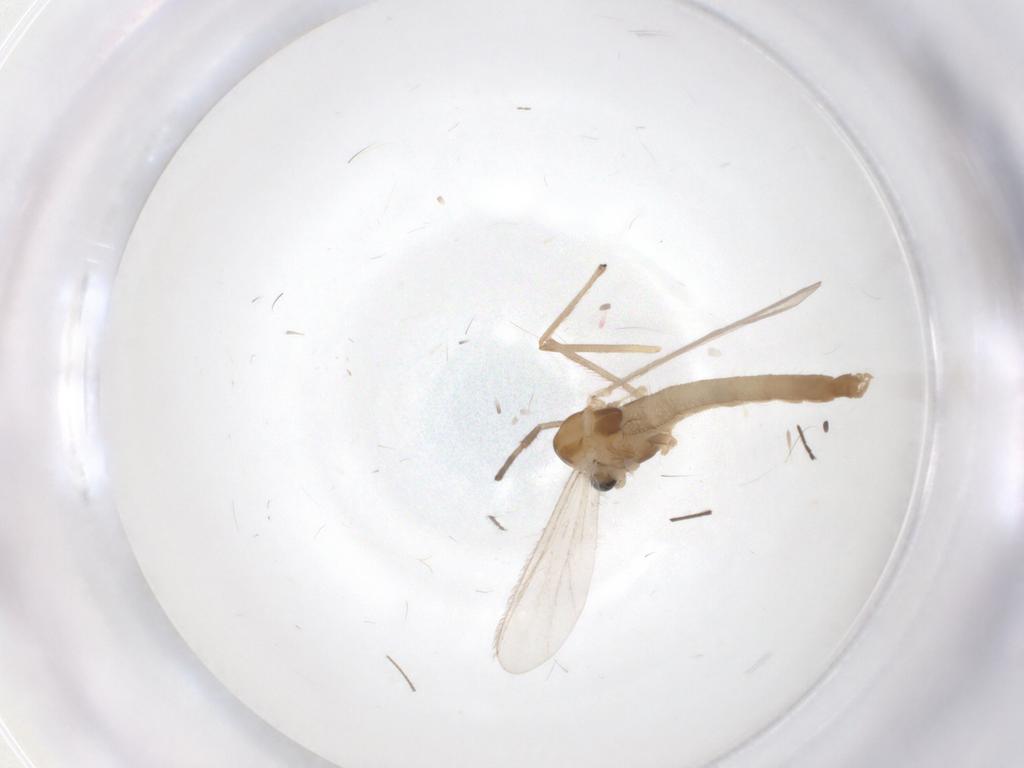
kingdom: Animalia
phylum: Arthropoda
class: Insecta
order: Diptera
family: Chironomidae
